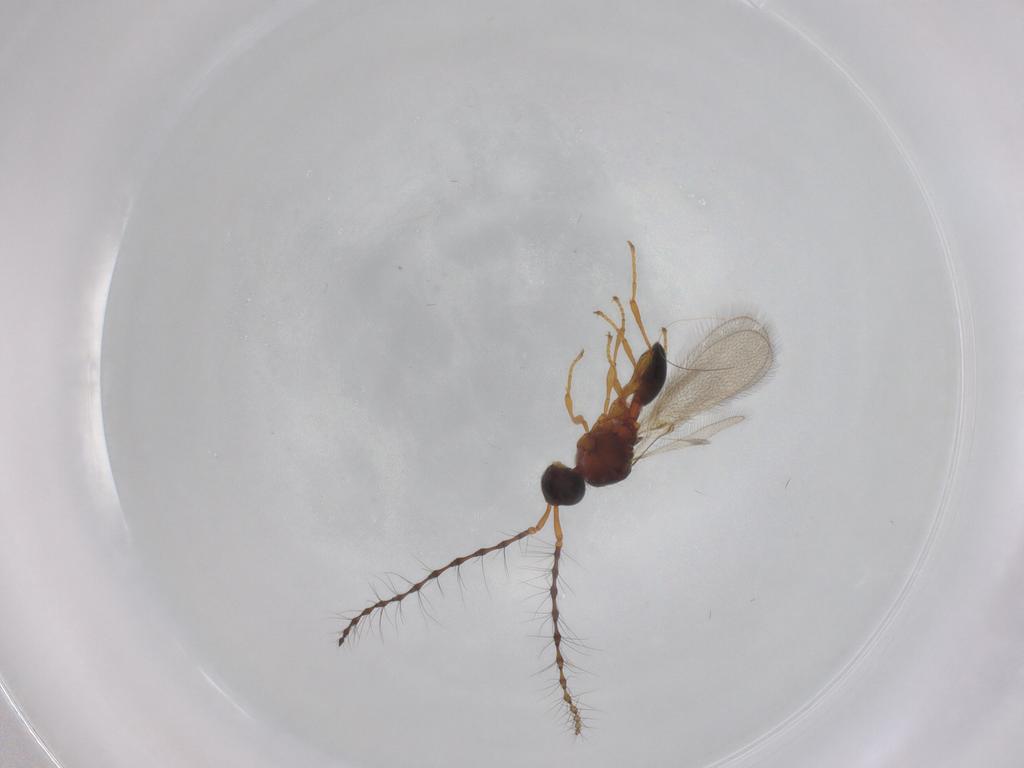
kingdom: Animalia
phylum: Arthropoda
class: Insecta
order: Hymenoptera
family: Diapriidae
